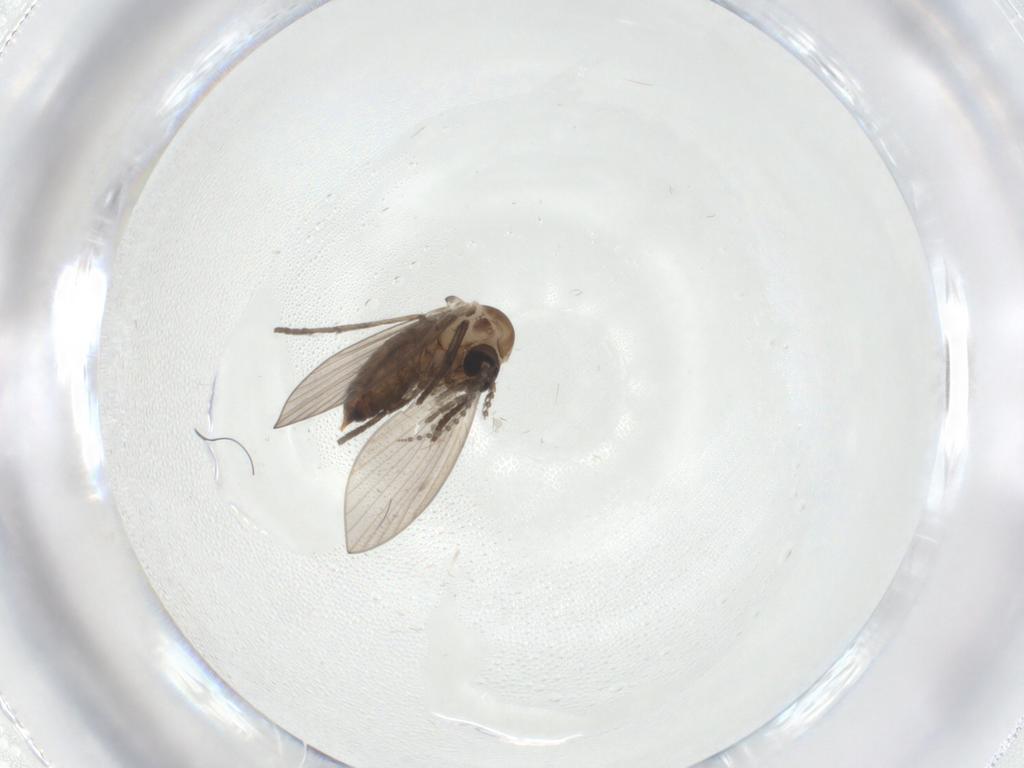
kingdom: Animalia
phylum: Arthropoda
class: Insecta
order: Diptera
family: Psychodidae
